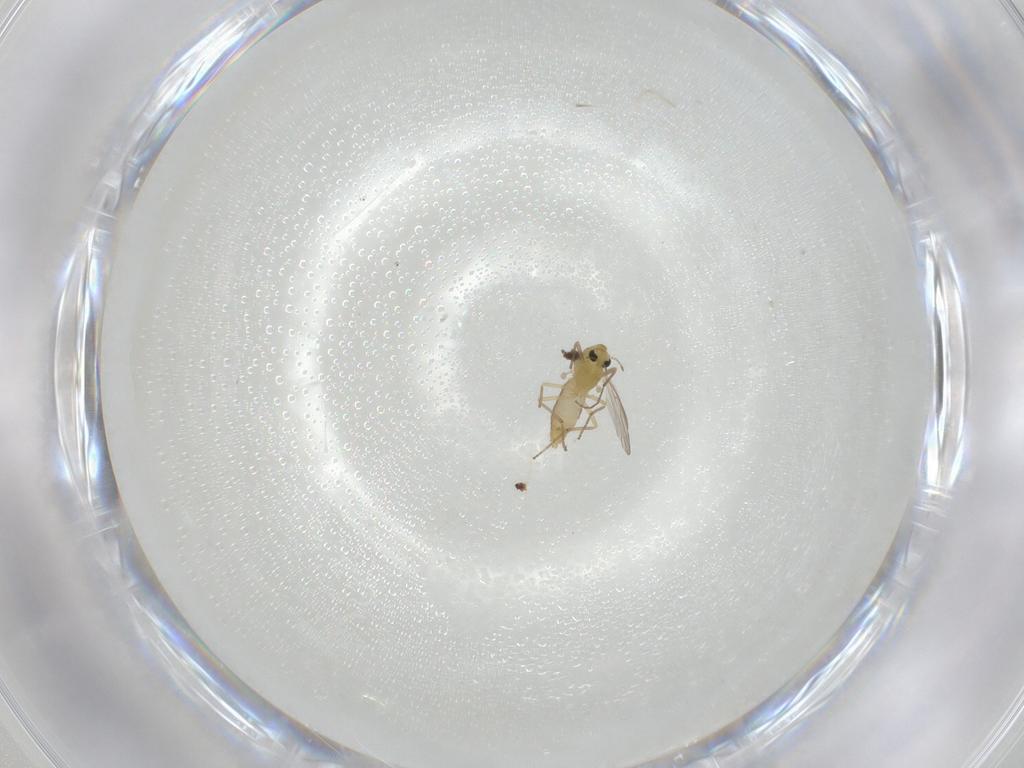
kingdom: Animalia
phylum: Arthropoda
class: Insecta
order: Diptera
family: Chironomidae
